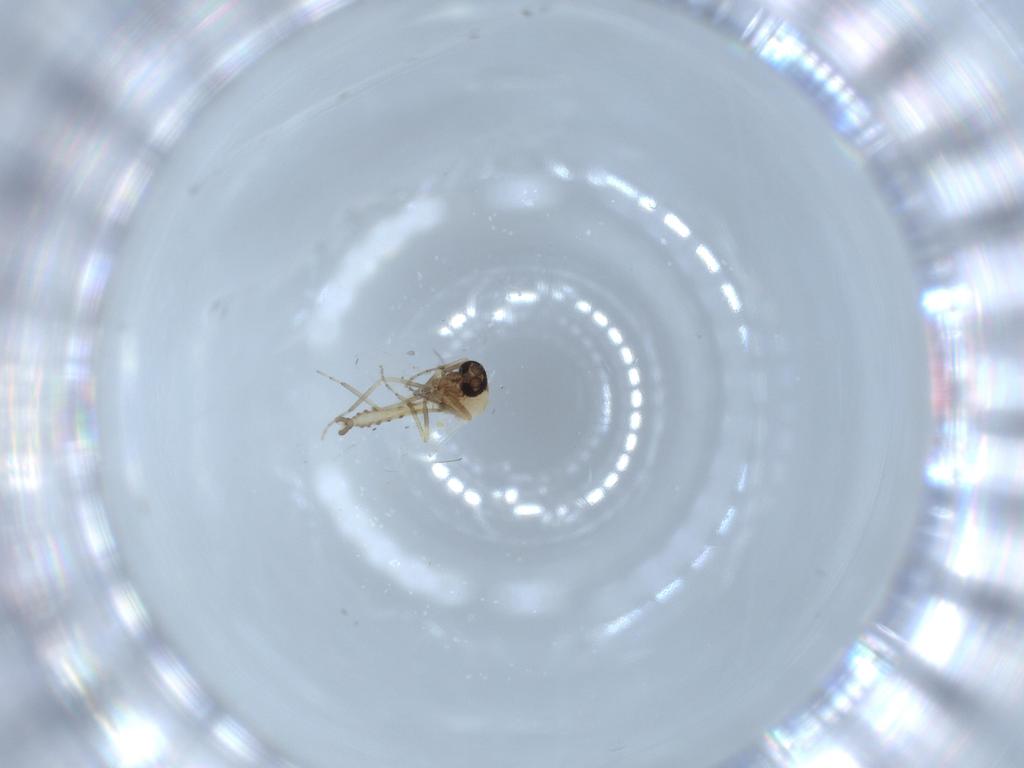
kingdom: Animalia
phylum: Arthropoda
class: Insecta
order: Diptera
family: Ceratopogonidae
